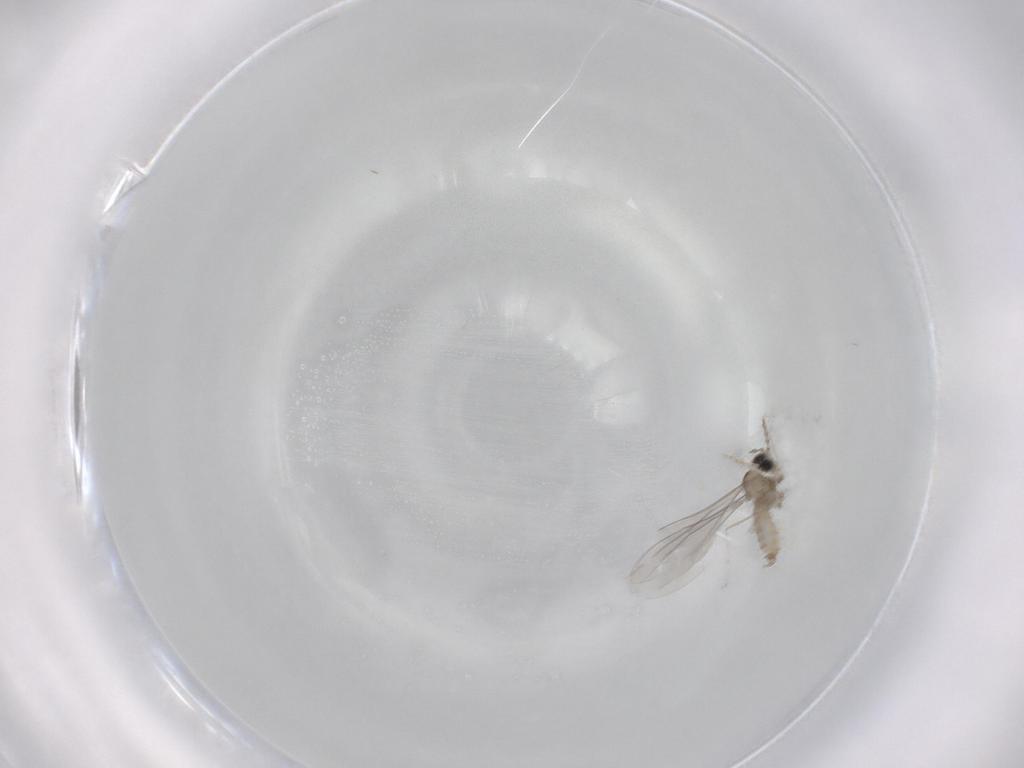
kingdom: Animalia
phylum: Arthropoda
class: Insecta
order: Diptera
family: Cecidomyiidae
